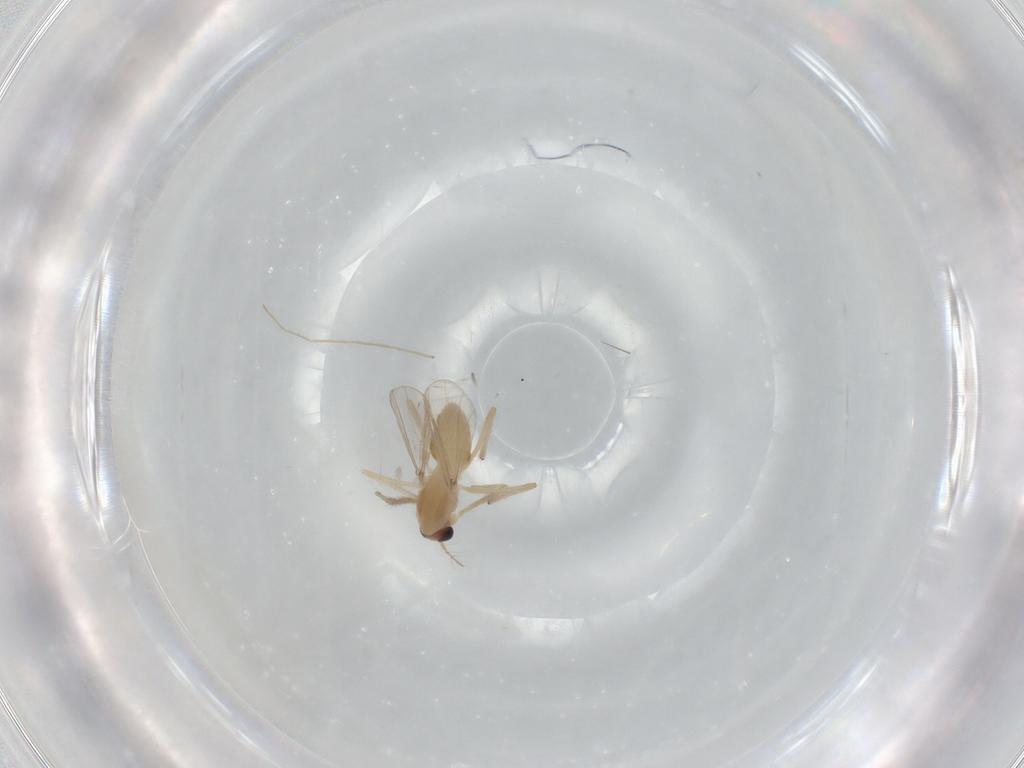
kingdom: Animalia
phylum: Arthropoda
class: Insecta
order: Diptera
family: Chironomidae
